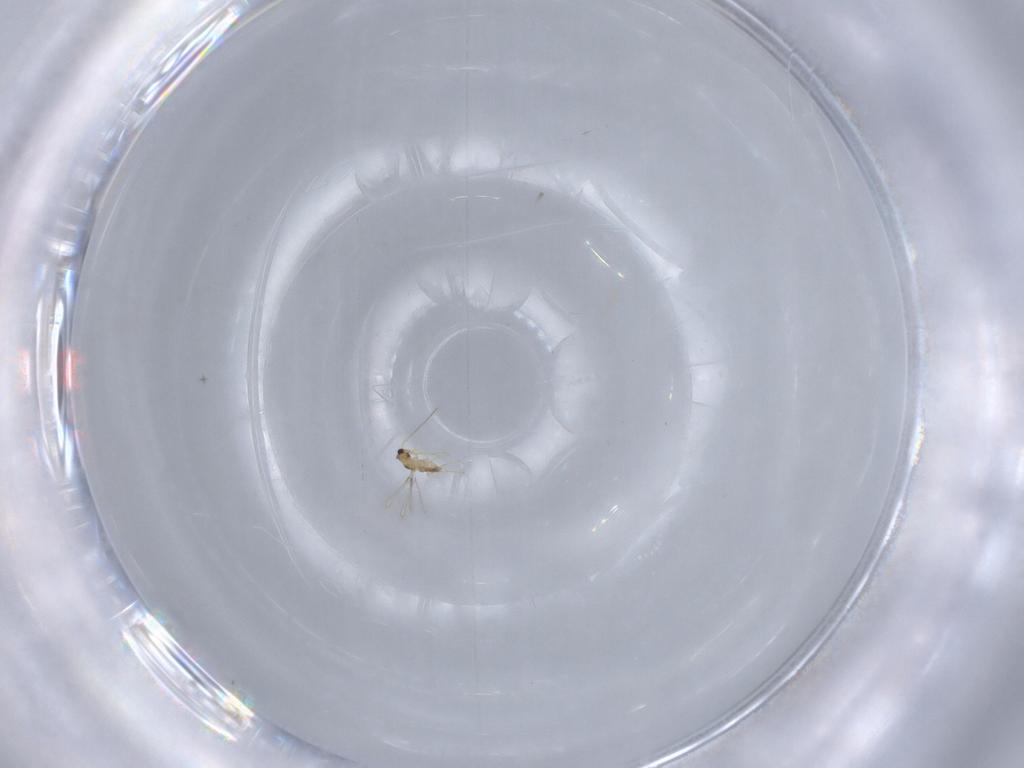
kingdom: Animalia
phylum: Arthropoda
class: Insecta
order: Hymenoptera
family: Mymaridae
